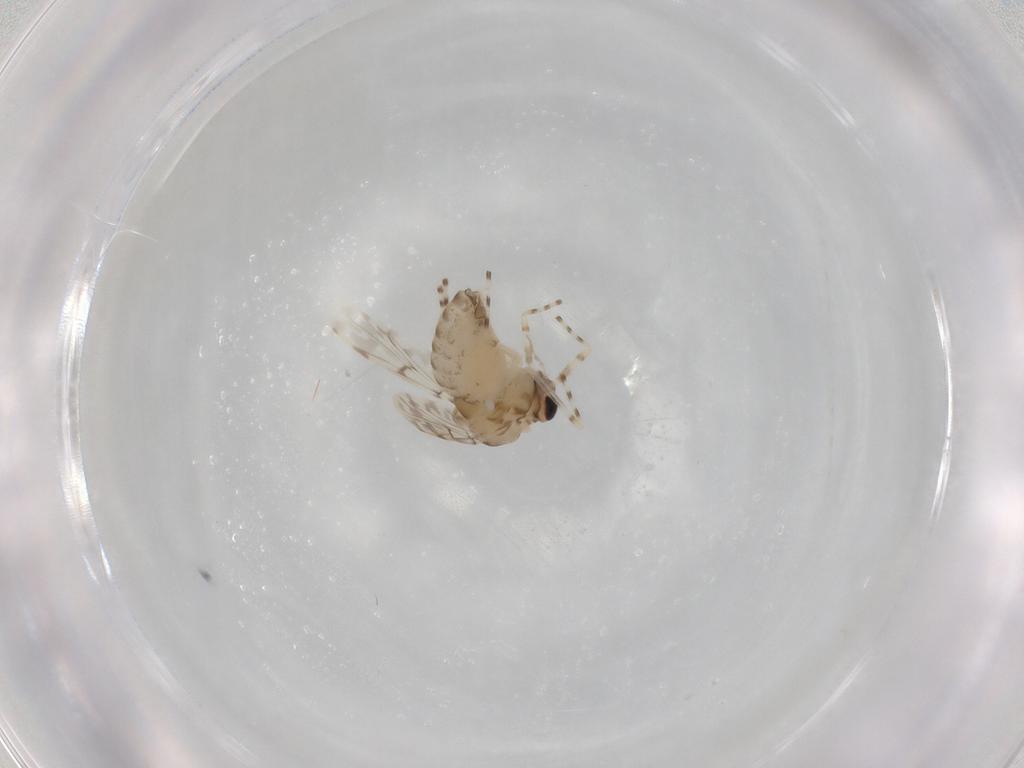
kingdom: Animalia
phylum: Arthropoda
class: Insecta
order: Diptera
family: Chironomidae
